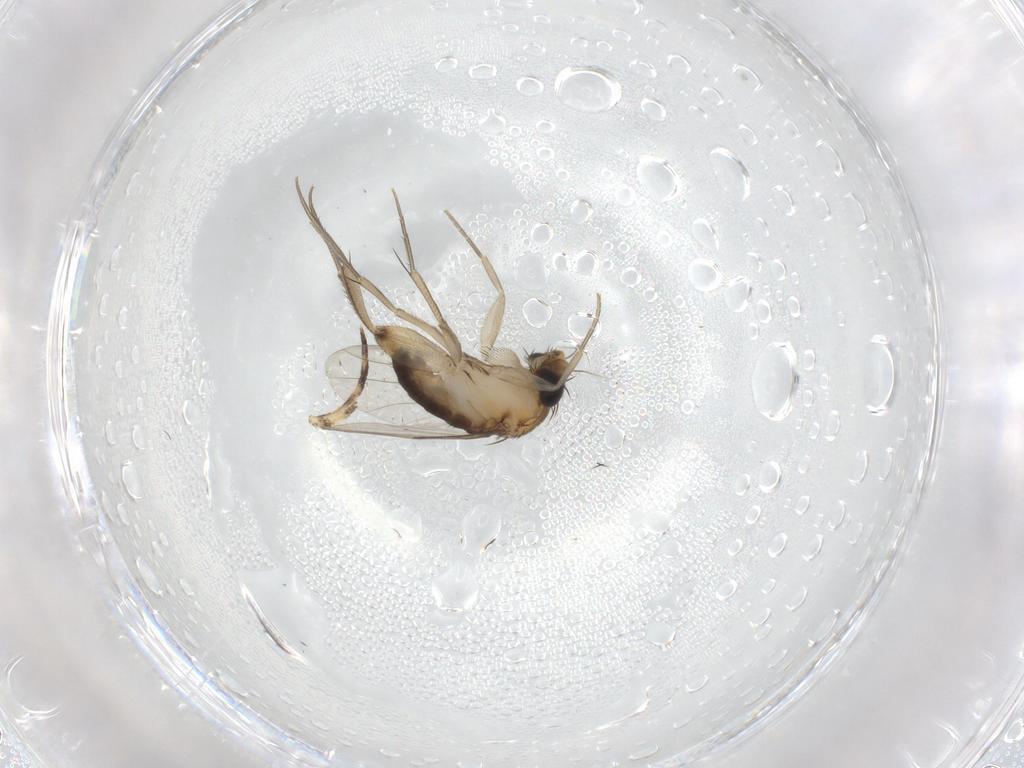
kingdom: Animalia
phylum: Arthropoda
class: Insecta
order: Diptera
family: Phoridae
